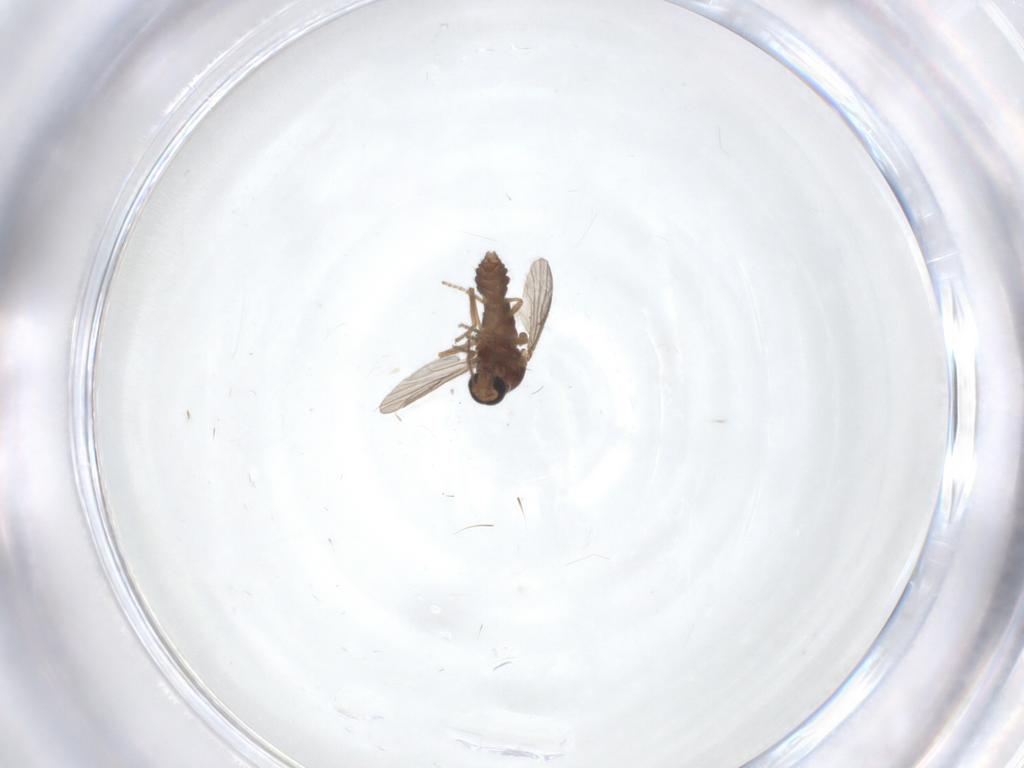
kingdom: Animalia
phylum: Arthropoda
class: Insecta
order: Diptera
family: Ceratopogonidae
